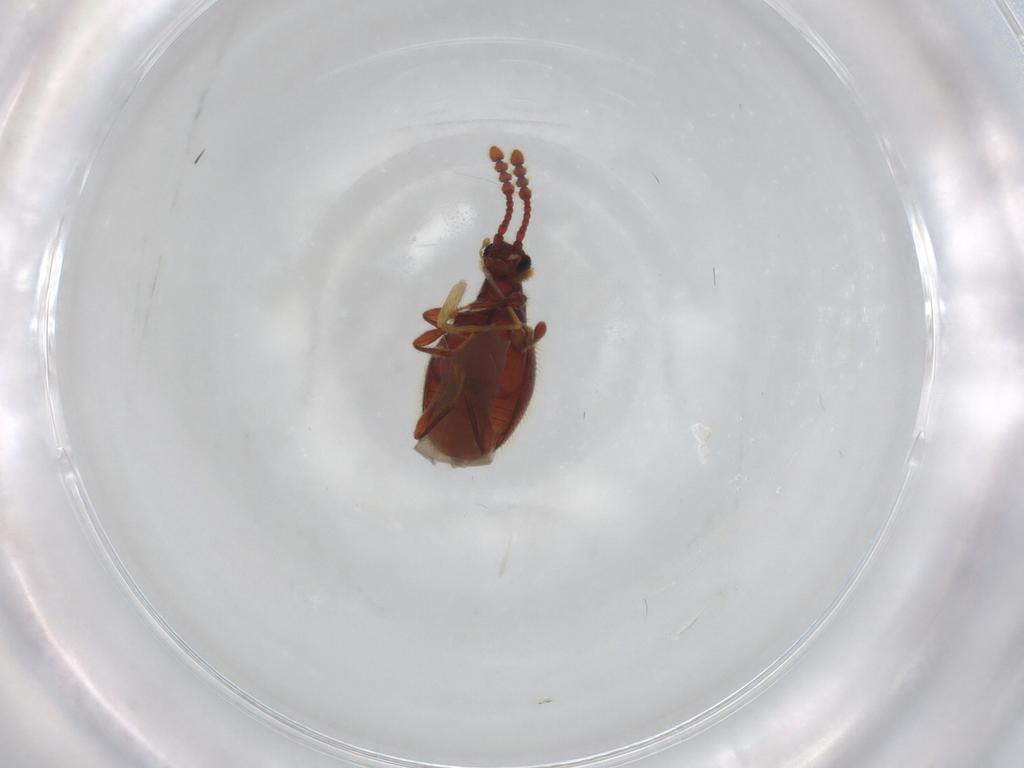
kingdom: Animalia
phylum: Arthropoda
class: Insecta
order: Coleoptera
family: Staphylinidae
